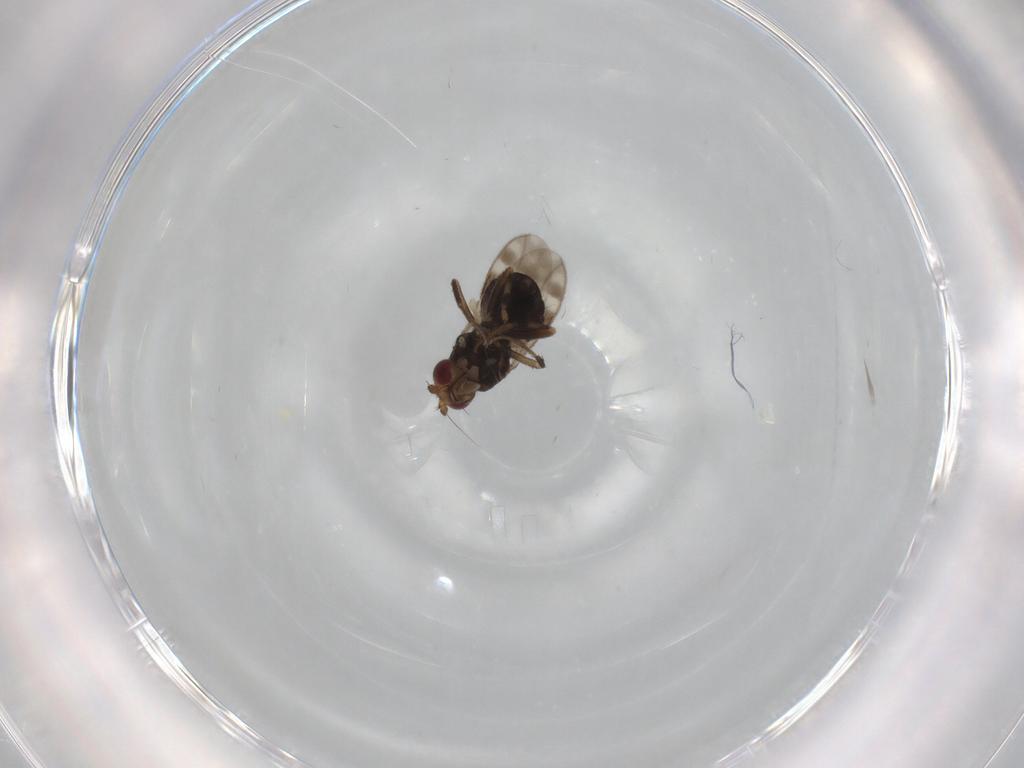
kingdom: Animalia
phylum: Arthropoda
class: Insecta
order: Diptera
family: Sphaeroceridae
